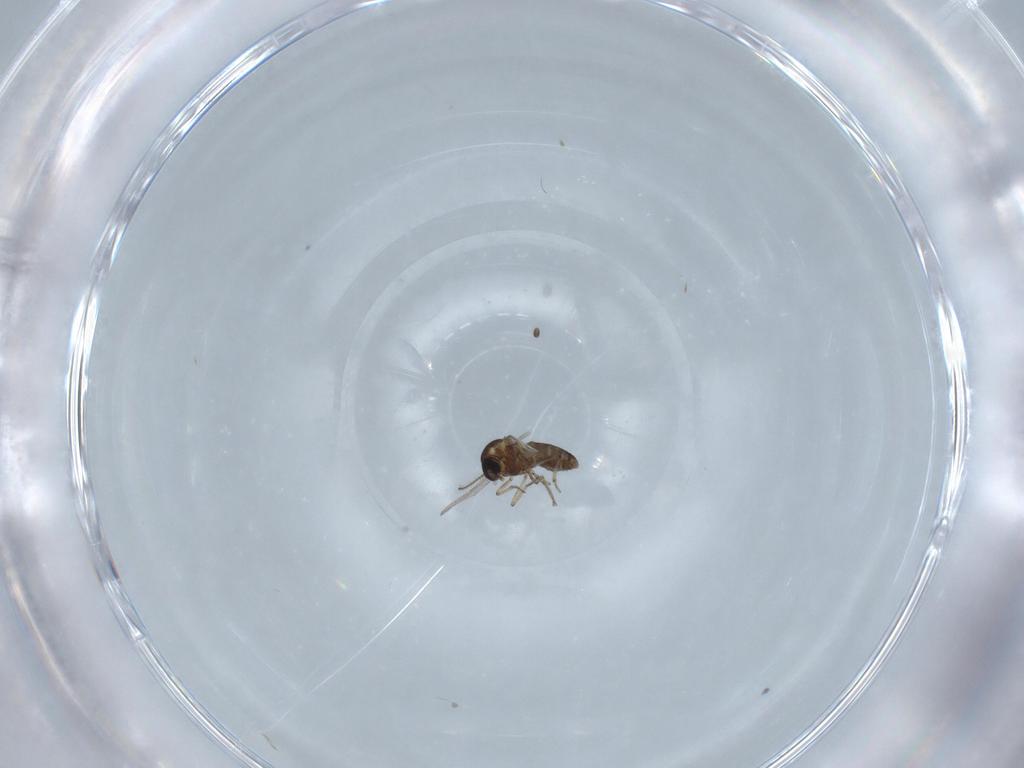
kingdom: Animalia
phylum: Arthropoda
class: Insecta
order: Diptera
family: Ceratopogonidae
